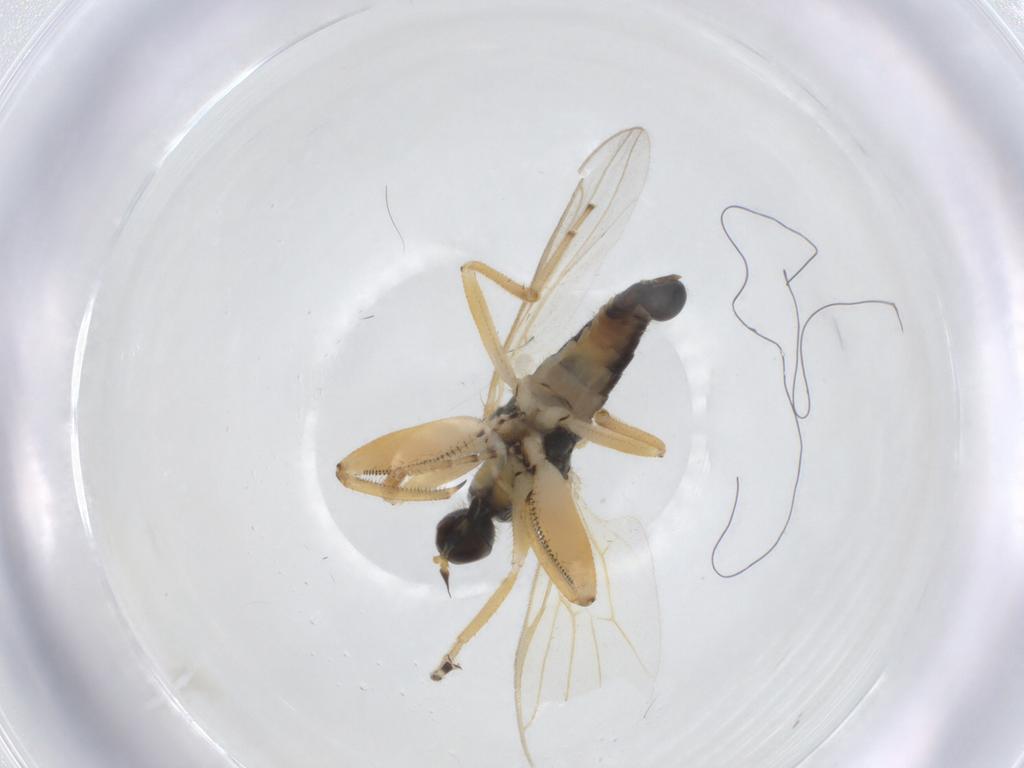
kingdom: Animalia
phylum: Arthropoda
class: Insecta
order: Diptera
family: Hybotidae
